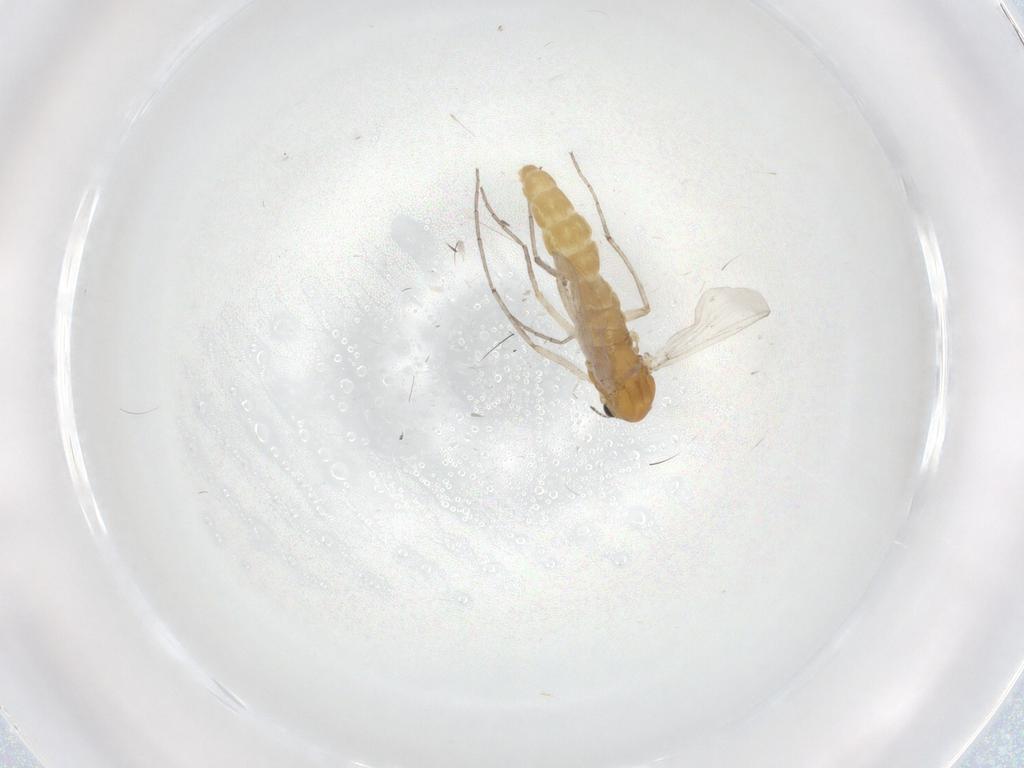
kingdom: Animalia
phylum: Arthropoda
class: Insecta
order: Diptera
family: Chironomidae
